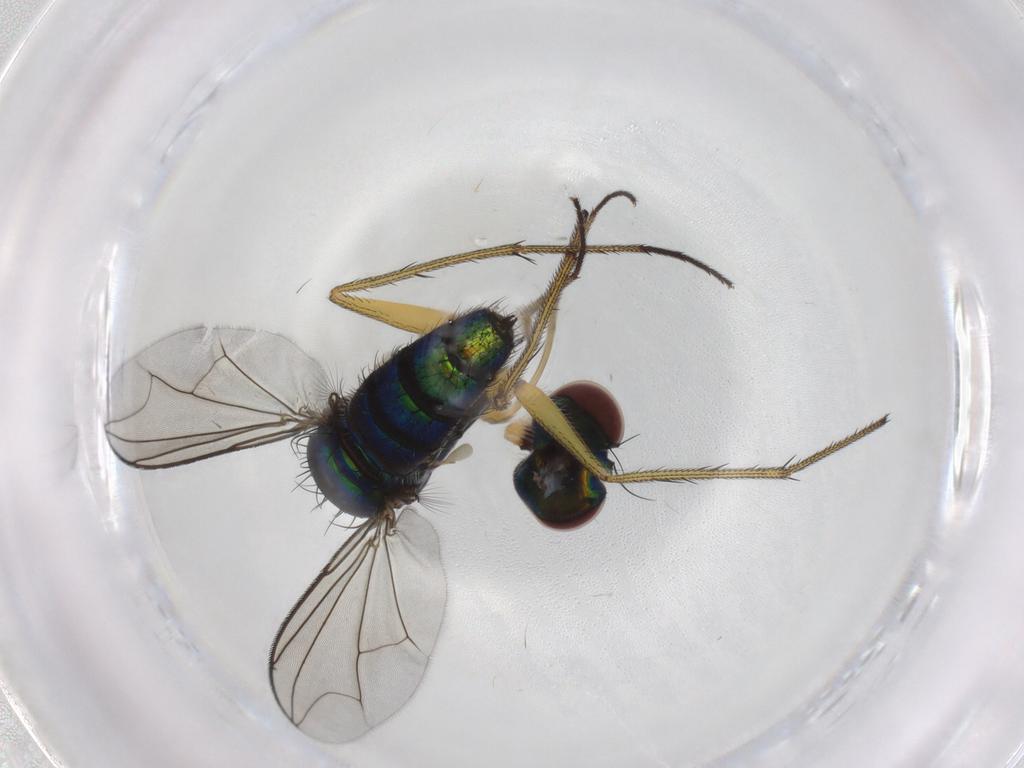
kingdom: Animalia
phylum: Arthropoda
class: Insecta
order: Diptera
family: Dolichopodidae
